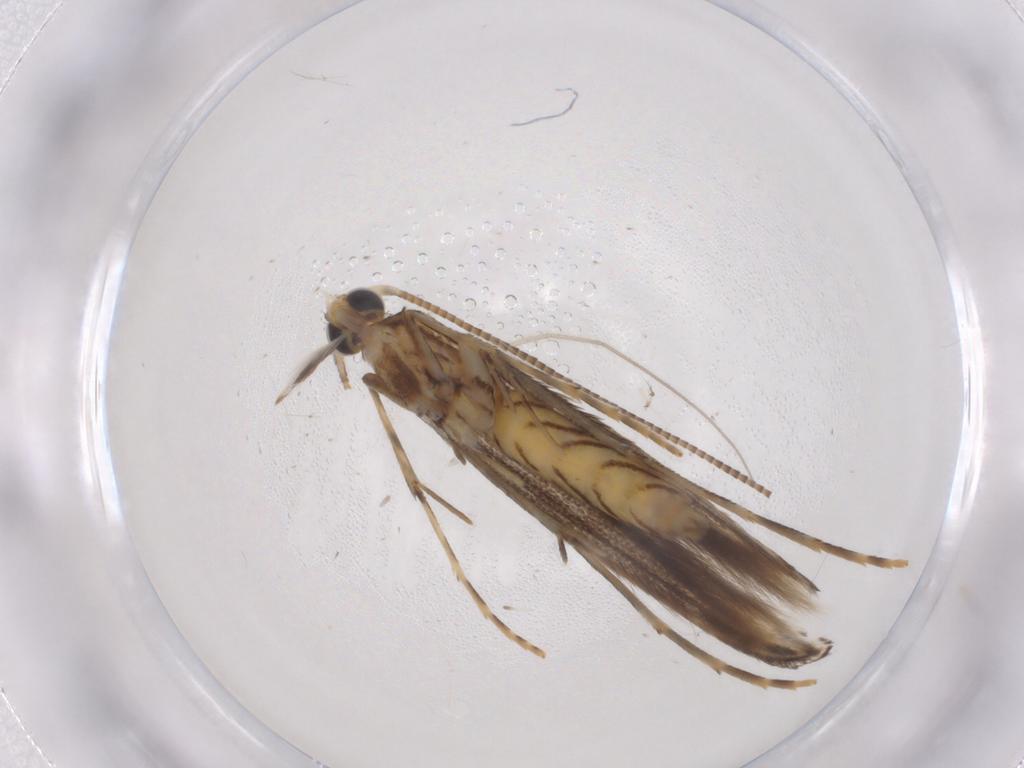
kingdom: Animalia
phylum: Arthropoda
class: Insecta
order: Lepidoptera
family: Gracillariidae
